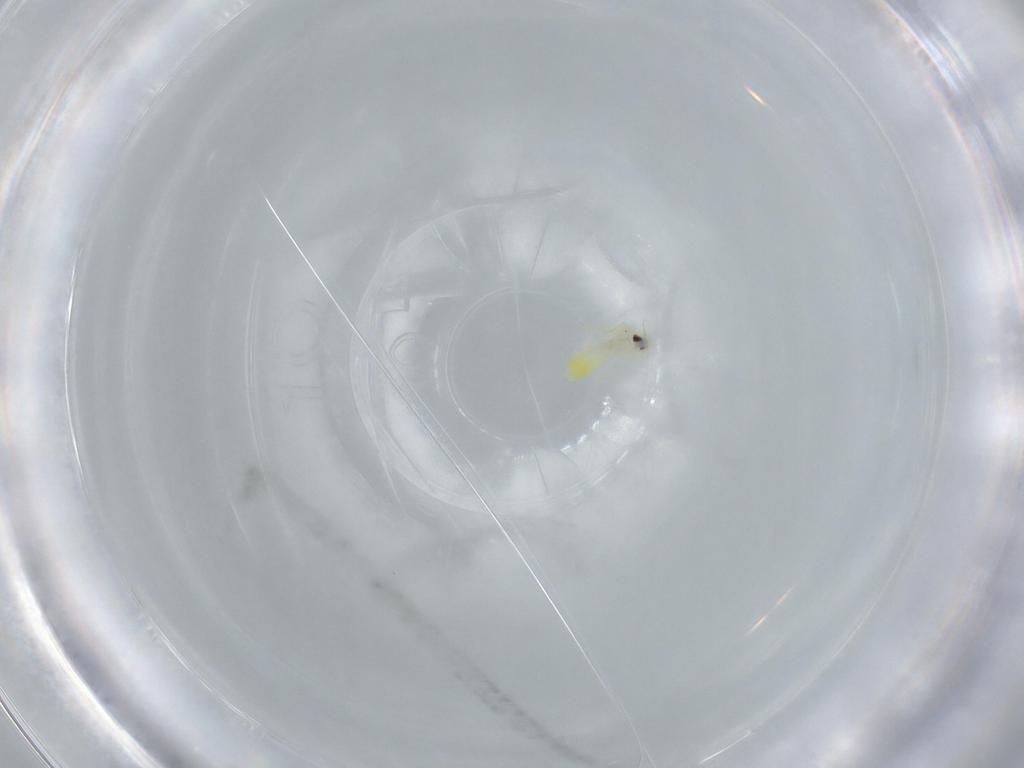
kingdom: Animalia
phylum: Arthropoda
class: Insecta
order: Hemiptera
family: Aleyrodidae
